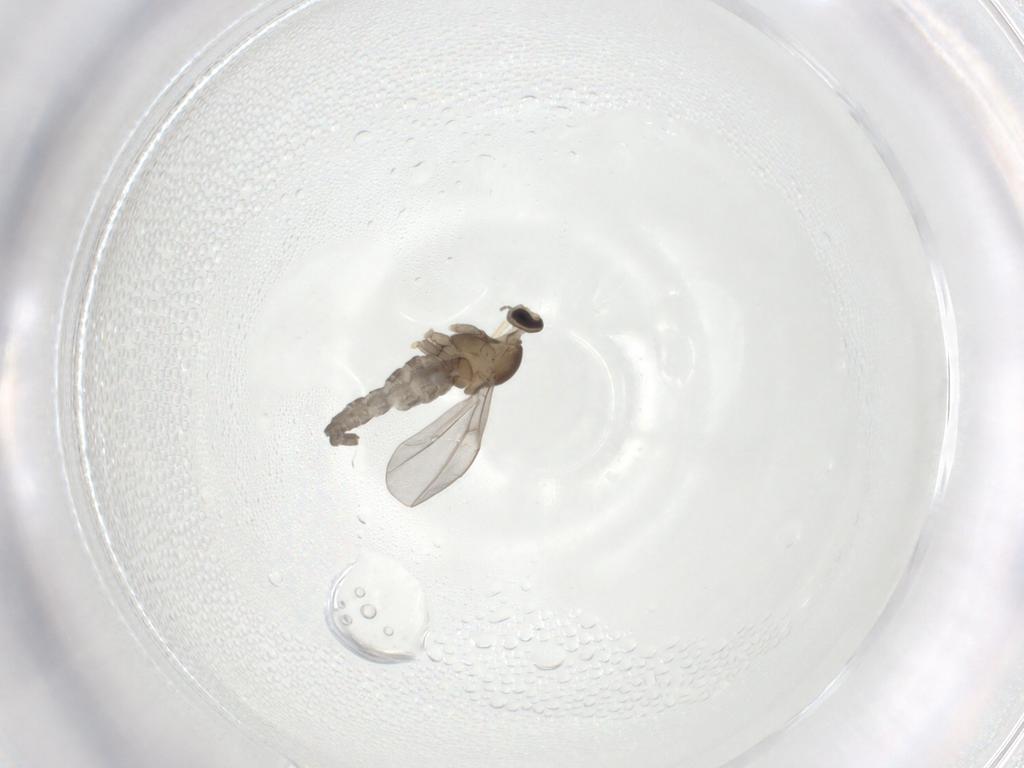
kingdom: Animalia
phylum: Arthropoda
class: Insecta
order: Diptera
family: Cecidomyiidae
